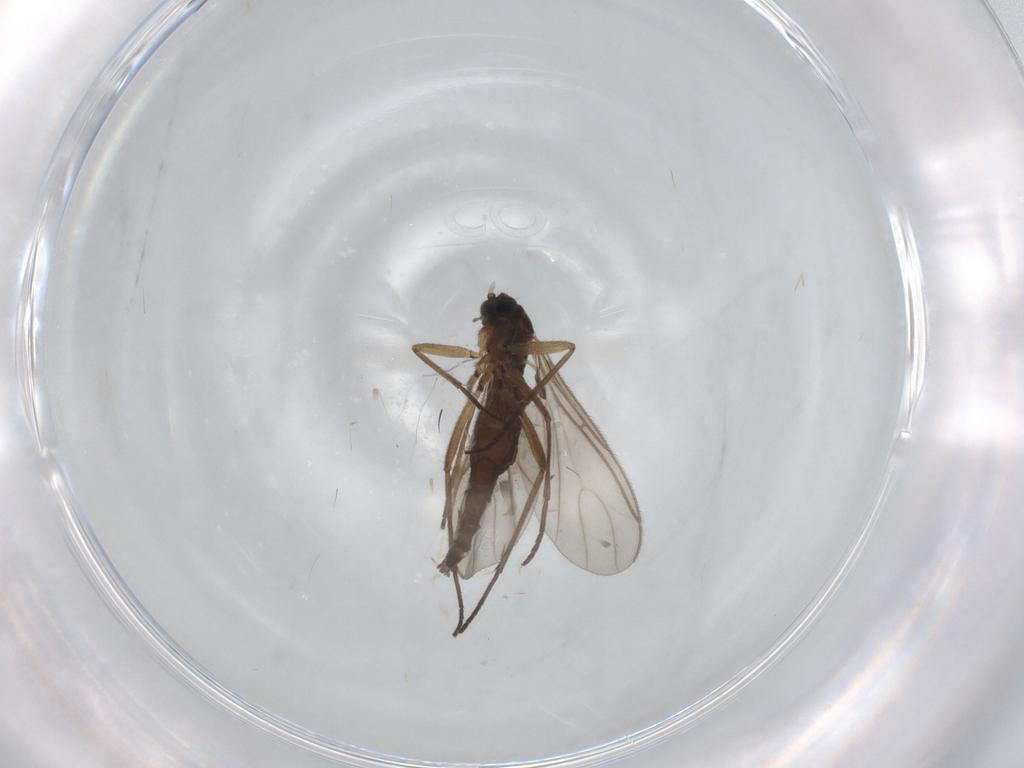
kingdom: Animalia
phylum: Arthropoda
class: Insecta
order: Diptera
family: Sciaridae
